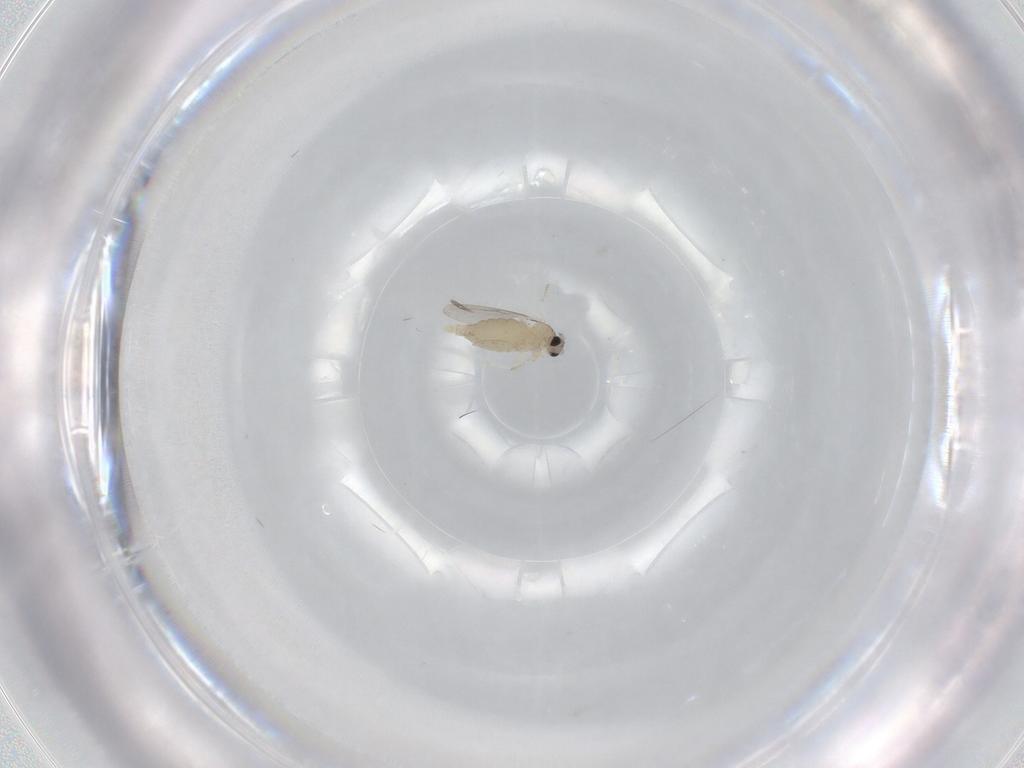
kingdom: Animalia
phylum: Arthropoda
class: Insecta
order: Diptera
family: Cecidomyiidae
